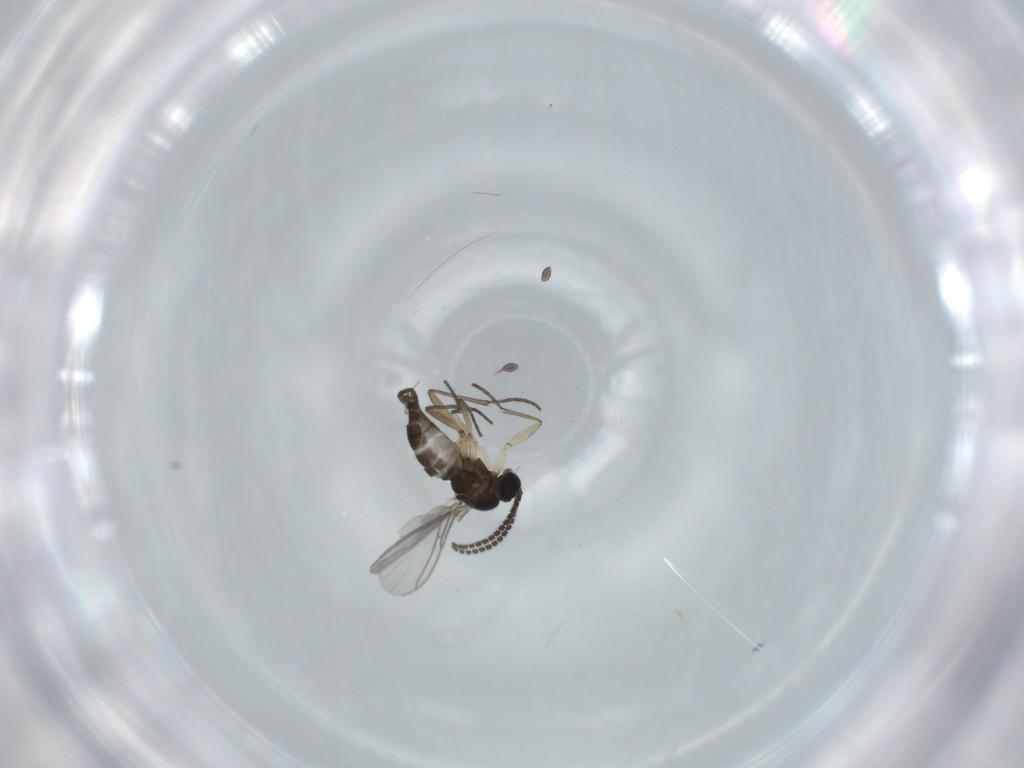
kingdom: Animalia
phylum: Arthropoda
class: Insecta
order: Diptera
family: Sciaridae
